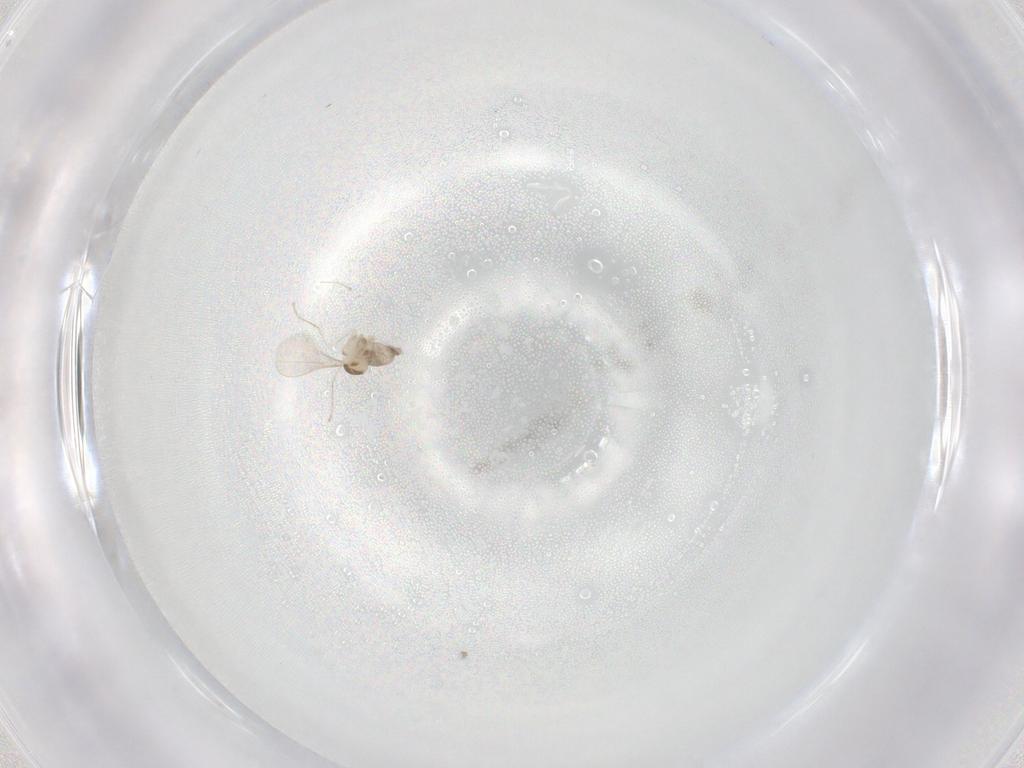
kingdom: Animalia
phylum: Arthropoda
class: Insecta
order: Diptera
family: Cecidomyiidae
